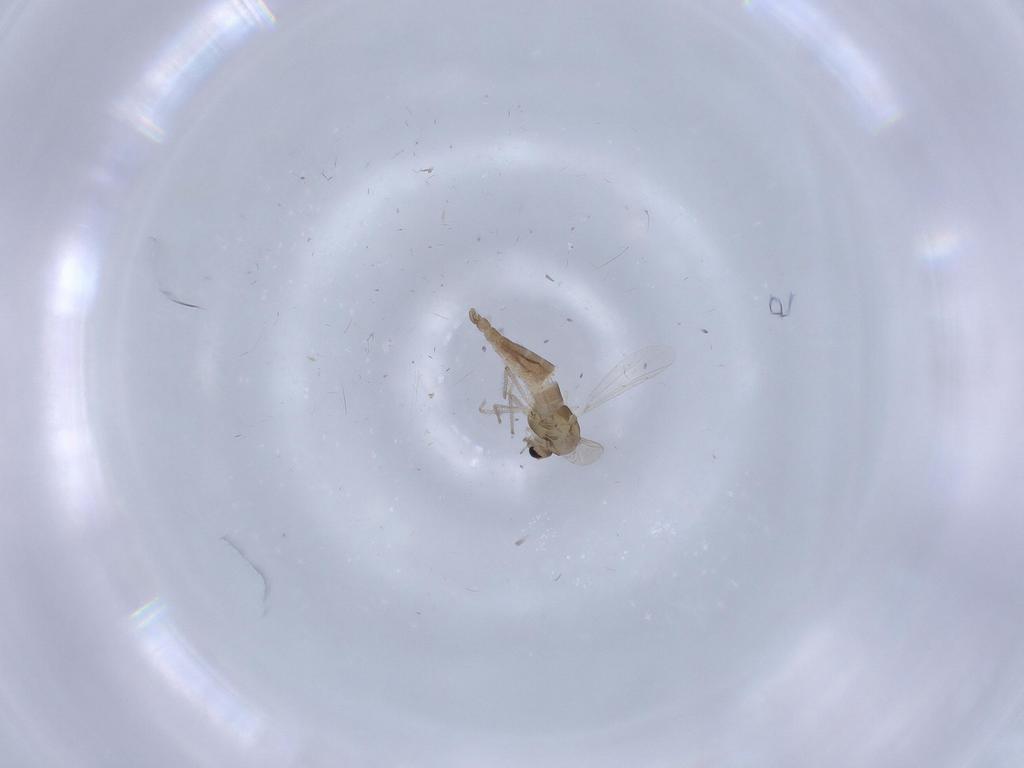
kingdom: Animalia
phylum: Arthropoda
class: Insecta
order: Diptera
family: Chironomidae
